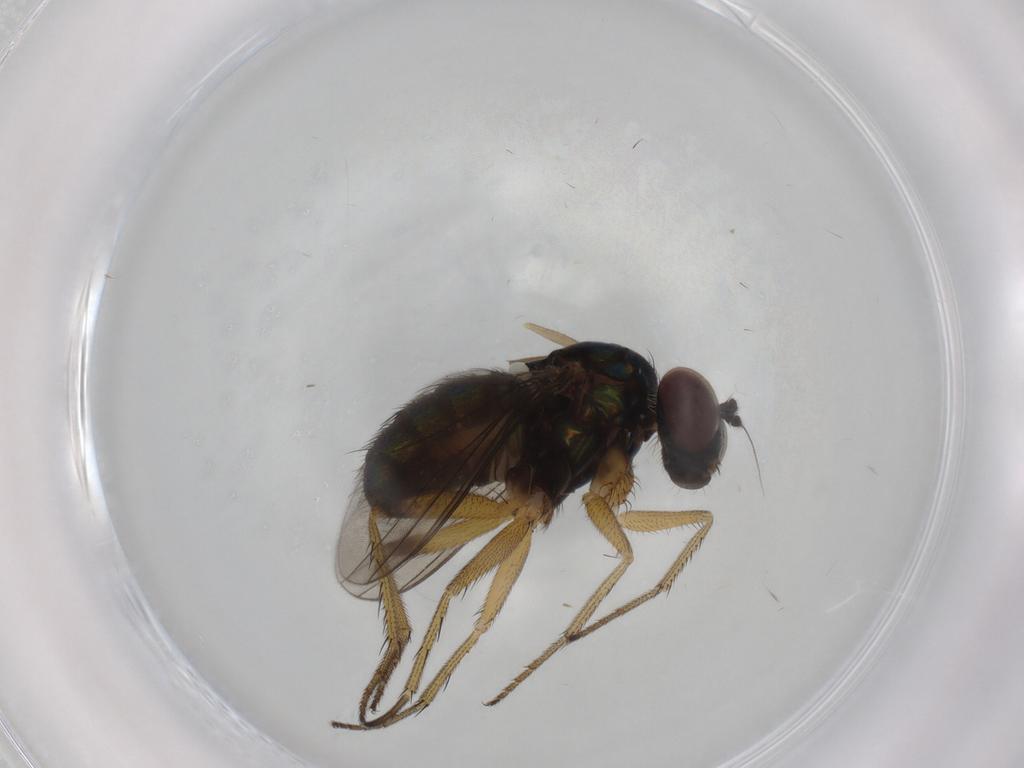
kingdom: Animalia
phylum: Arthropoda
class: Insecta
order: Diptera
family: Dolichopodidae
